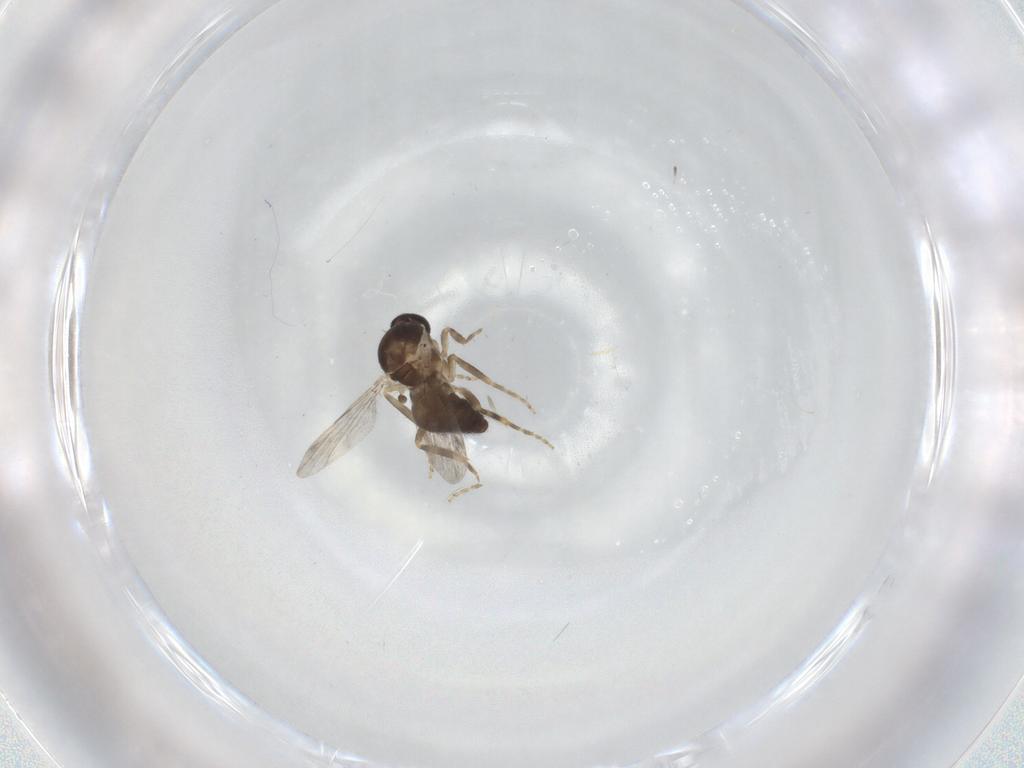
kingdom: Animalia
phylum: Arthropoda
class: Insecta
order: Diptera
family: Ceratopogonidae
